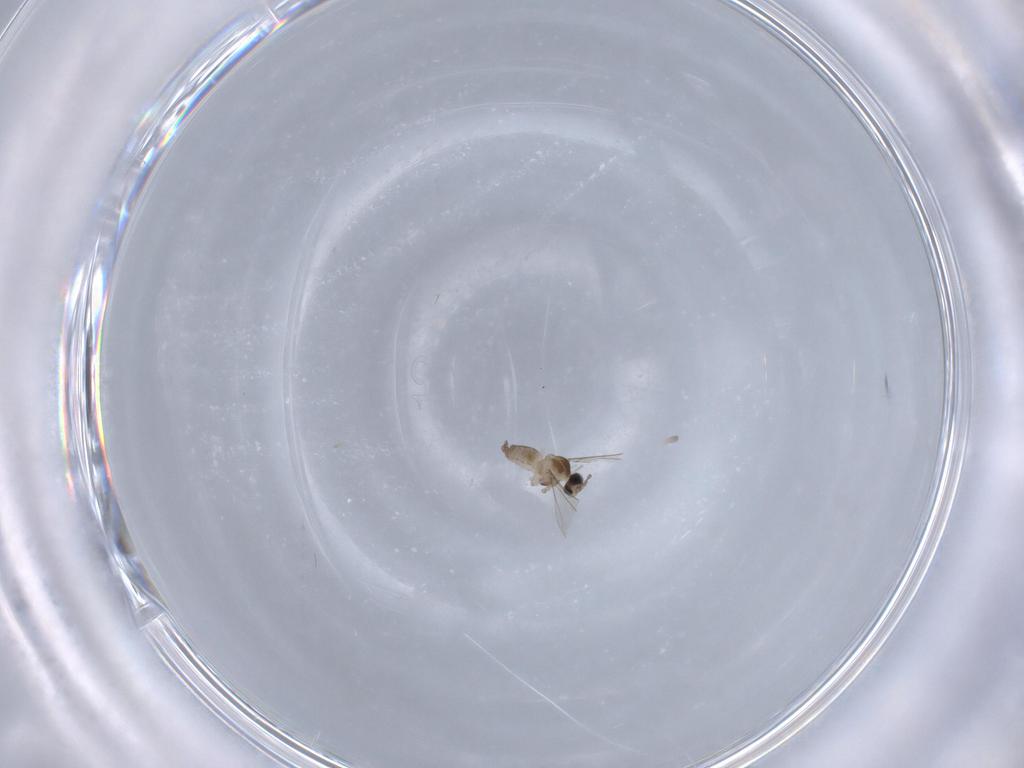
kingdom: Animalia
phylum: Arthropoda
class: Insecta
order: Diptera
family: Cecidomyiidae
